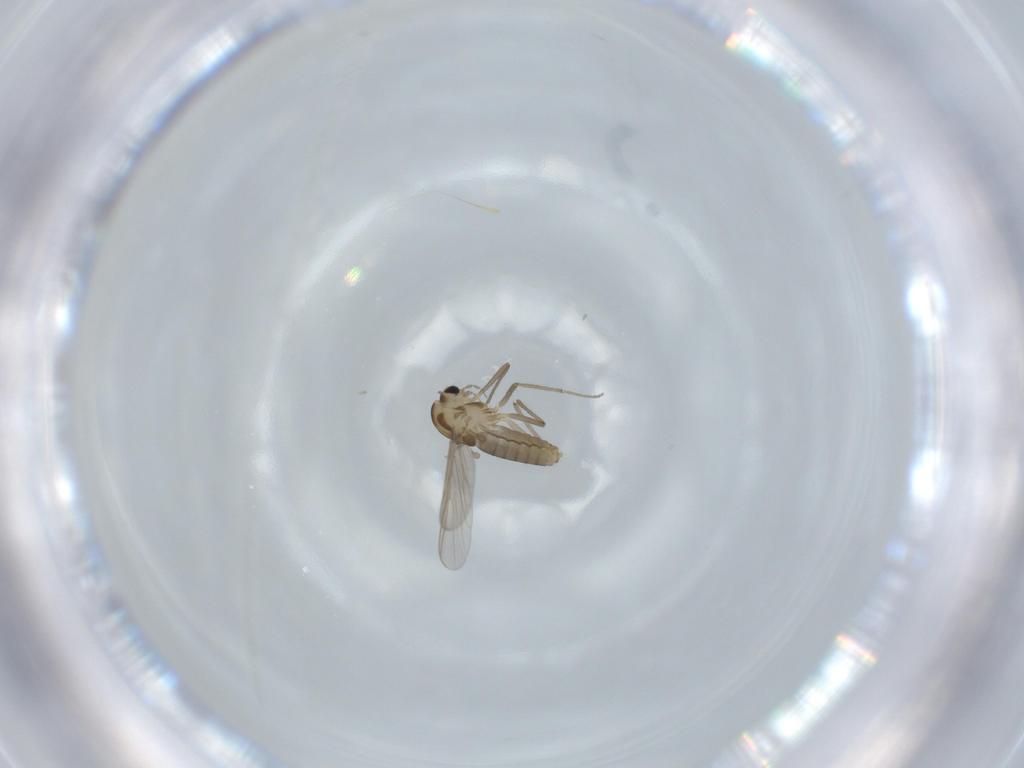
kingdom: Animalia
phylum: Arthropoda
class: Insecta
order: Diptera
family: Chironomidae
